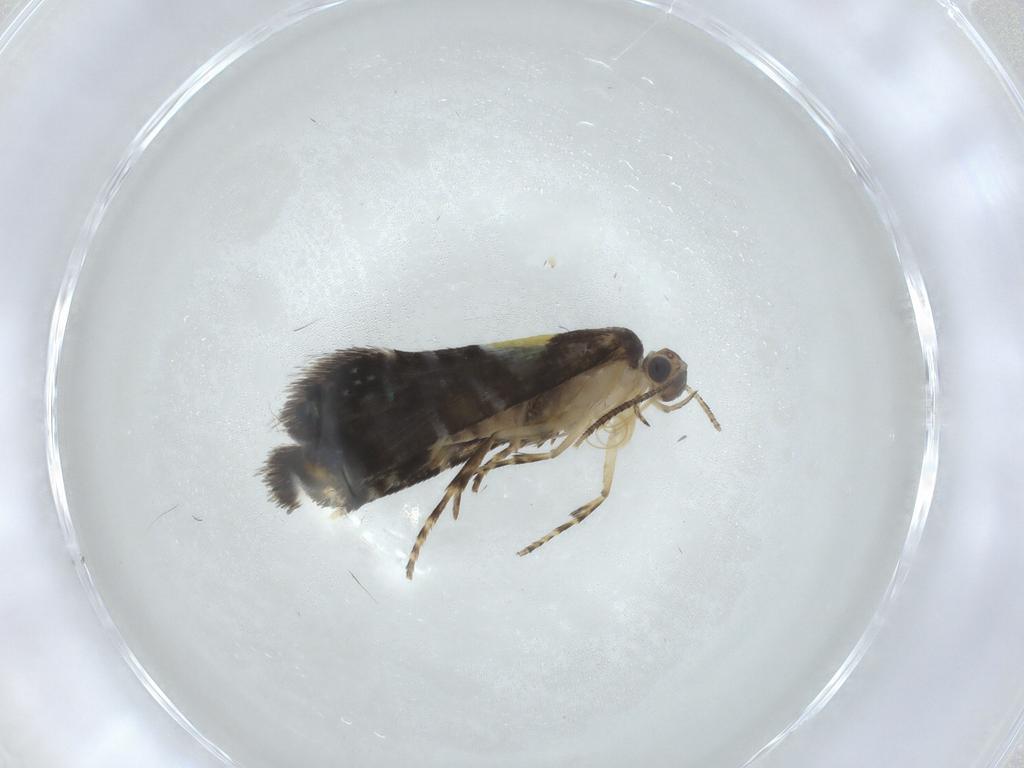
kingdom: Animalia
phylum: Arthropoda
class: Insecta
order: Lepidoptera
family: Glyphipterigidae
